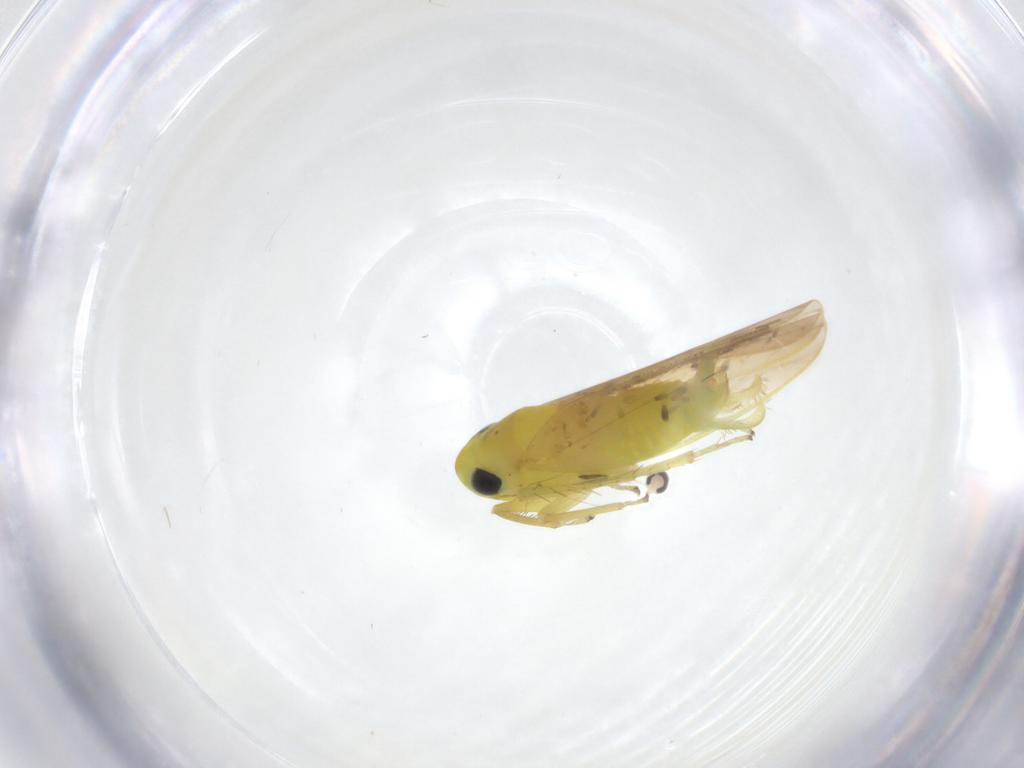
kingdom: Animalia
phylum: Arthropoda
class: Insecta
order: Hemiptera
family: Cicadellidae
